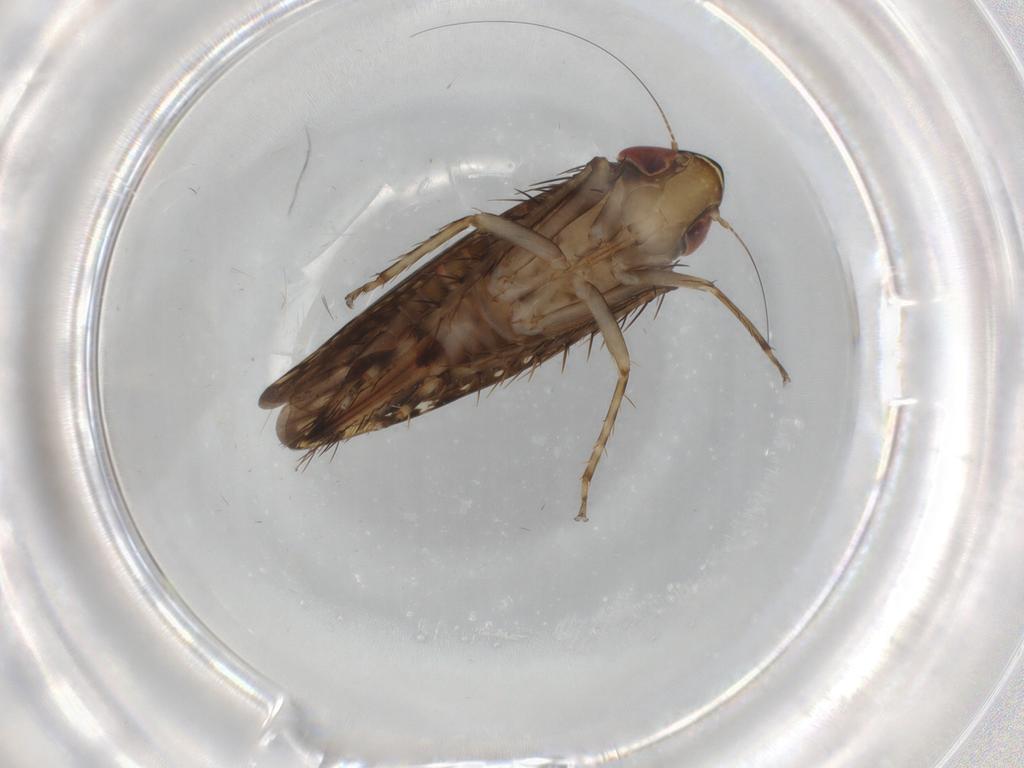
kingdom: Animalia
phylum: Arthropoda
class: Insecta
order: Hemiptera
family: Cicadellidae
